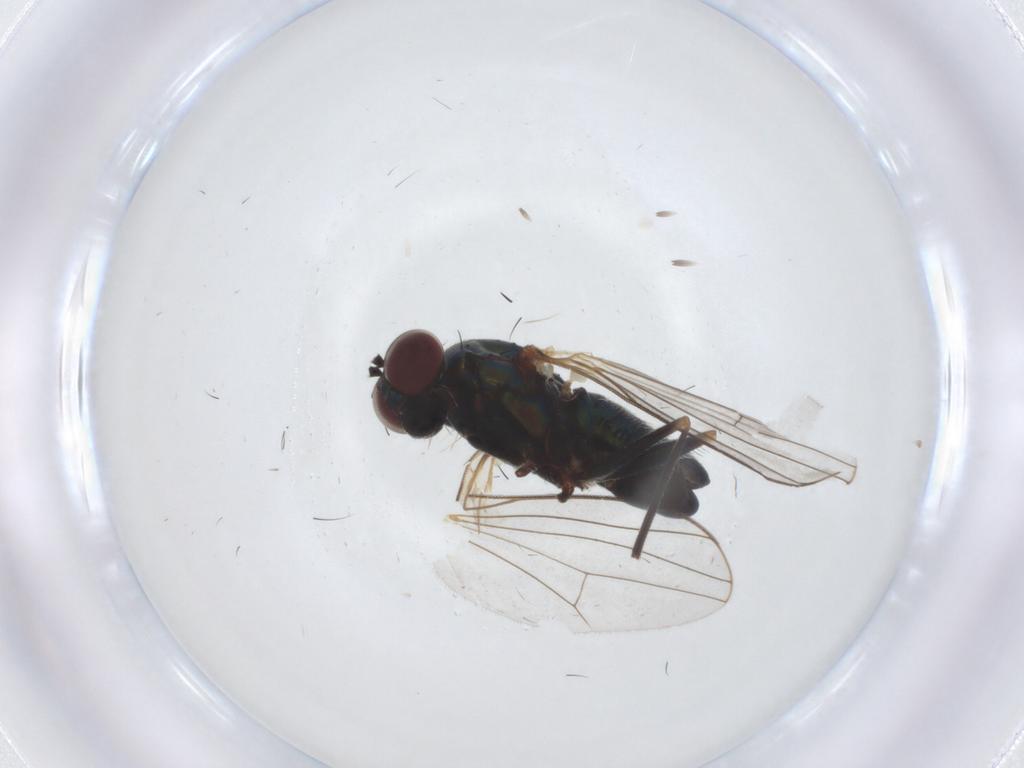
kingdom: Animalia
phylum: Arthropoda
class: Insecta
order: Diptera
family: Dolichopodidae
